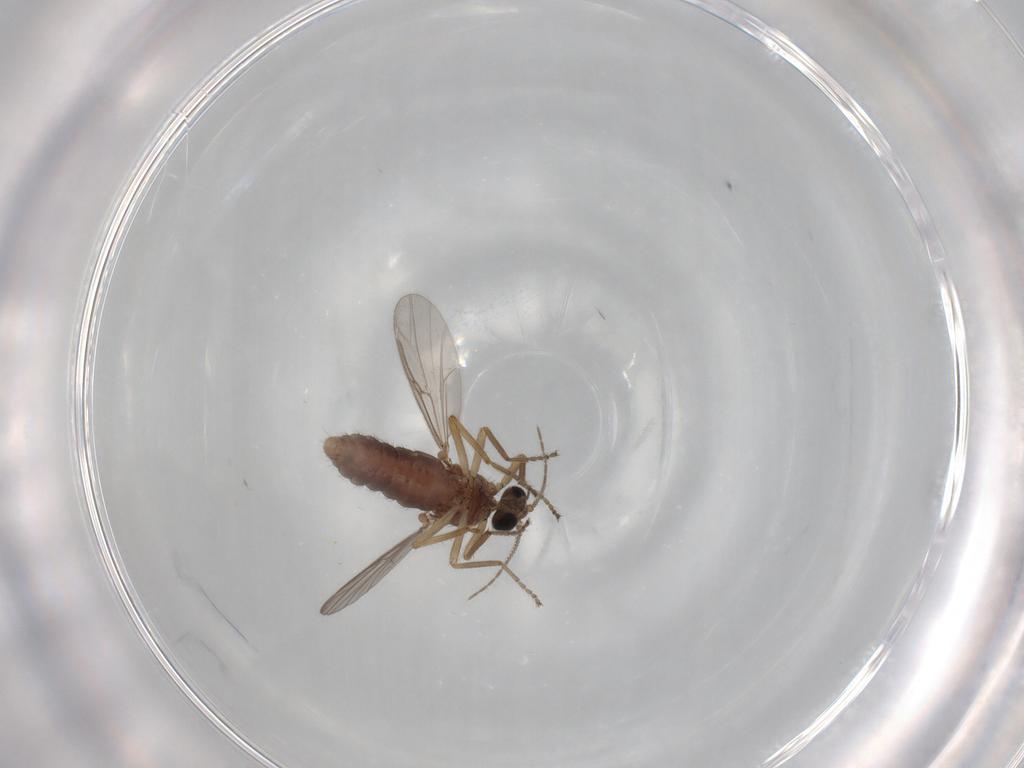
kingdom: Animalia
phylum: Arthropoda
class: Insecta
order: Diptera
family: Ceratopogonidae
